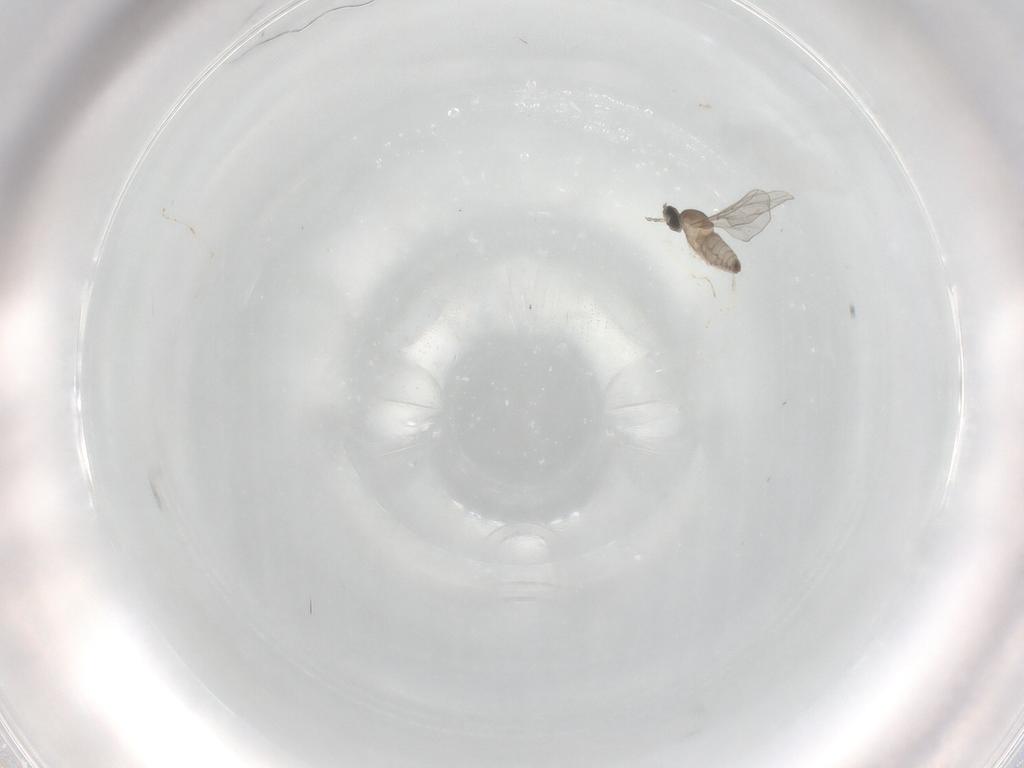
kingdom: Animalia
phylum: Arthropoda
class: Insecta
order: Diptera
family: Cecidomyiidae
